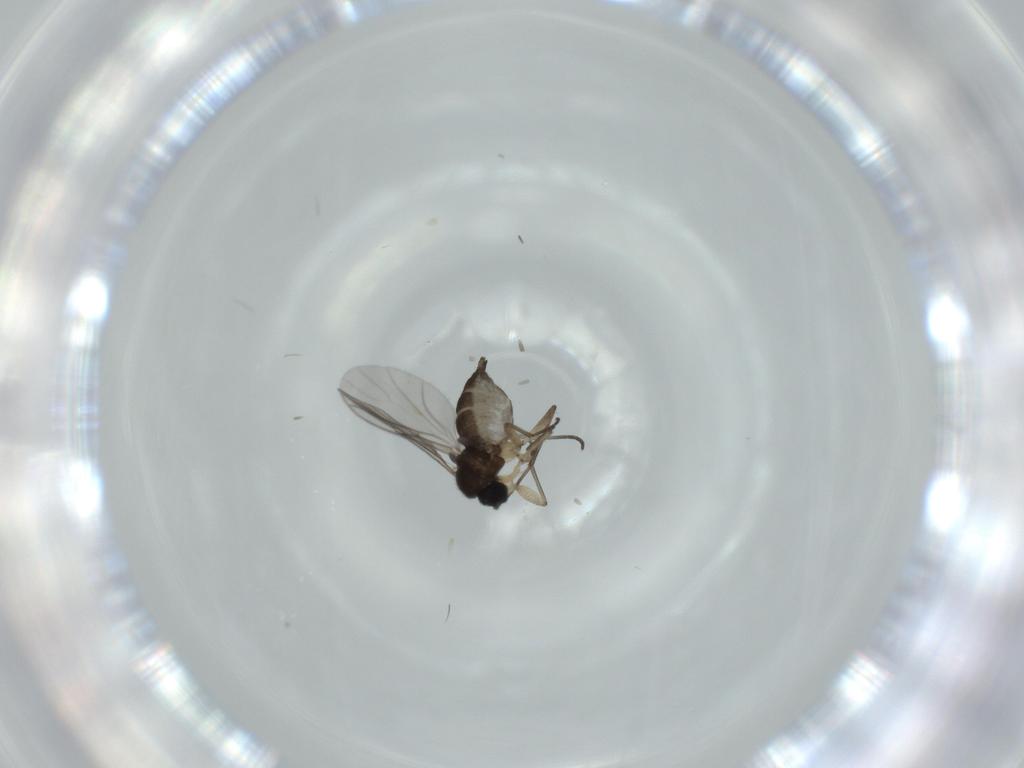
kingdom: Animalia
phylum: Arthropoda
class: Insecta
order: Diptera
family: Sciaridae
